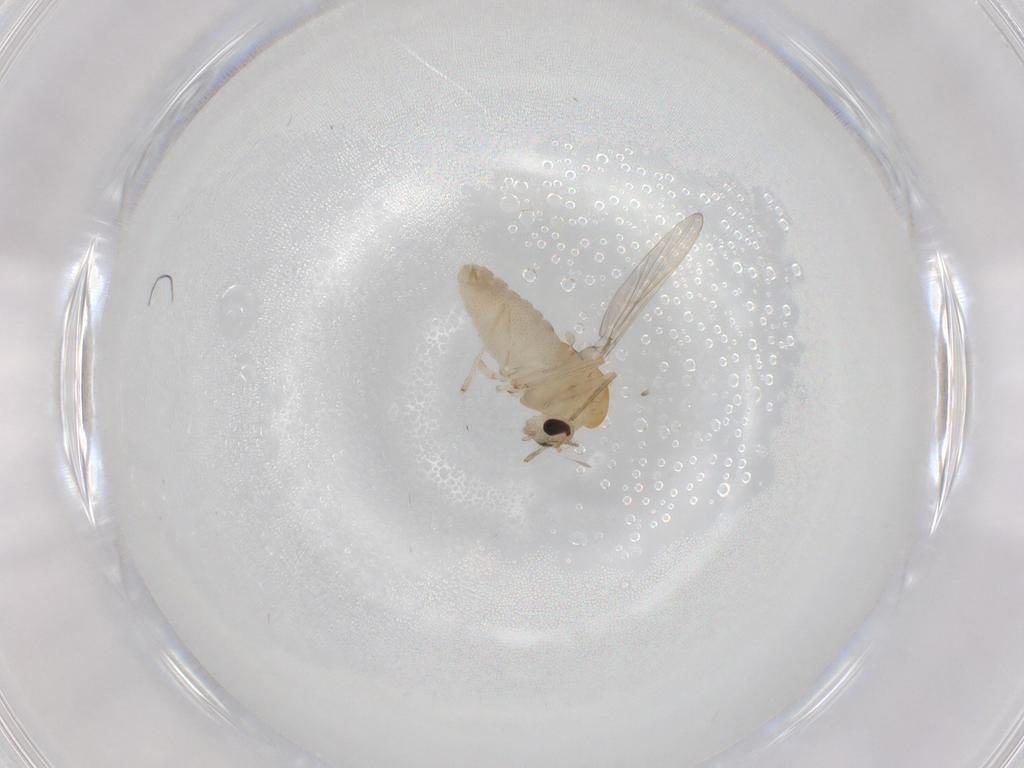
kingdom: Animalia
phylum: Arthropoda
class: Insecta
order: Diptera
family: Chironomidae
